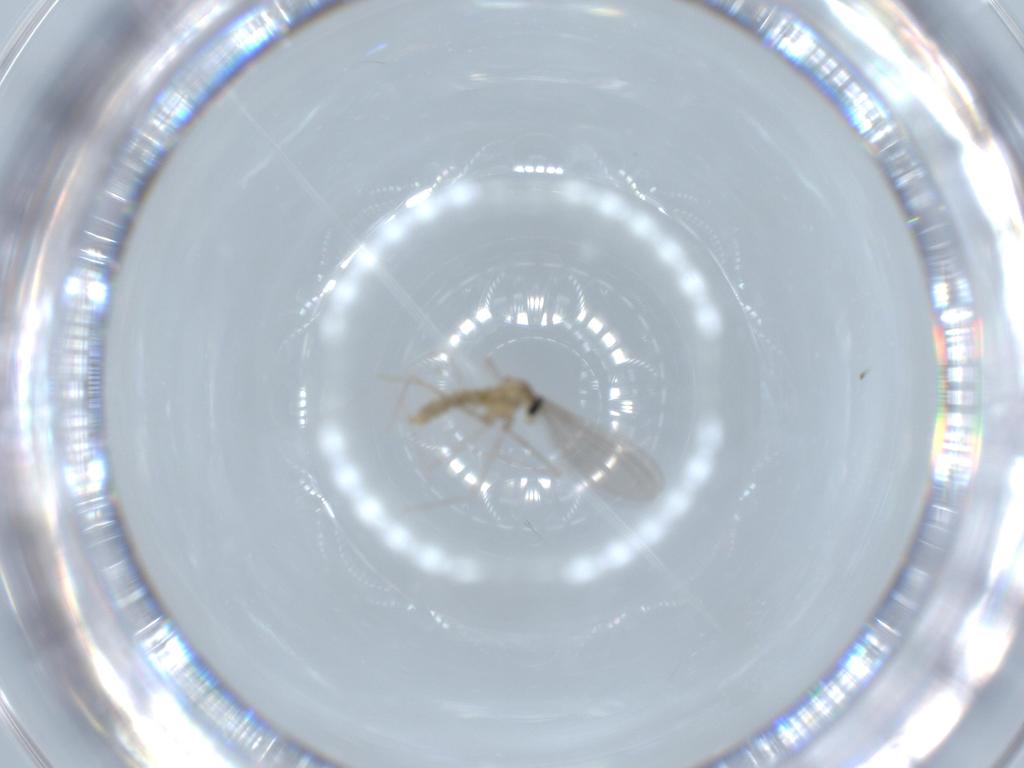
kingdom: Animalia
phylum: Arthropoda
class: Insecta
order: Diptera
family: Cecidomyiidae
